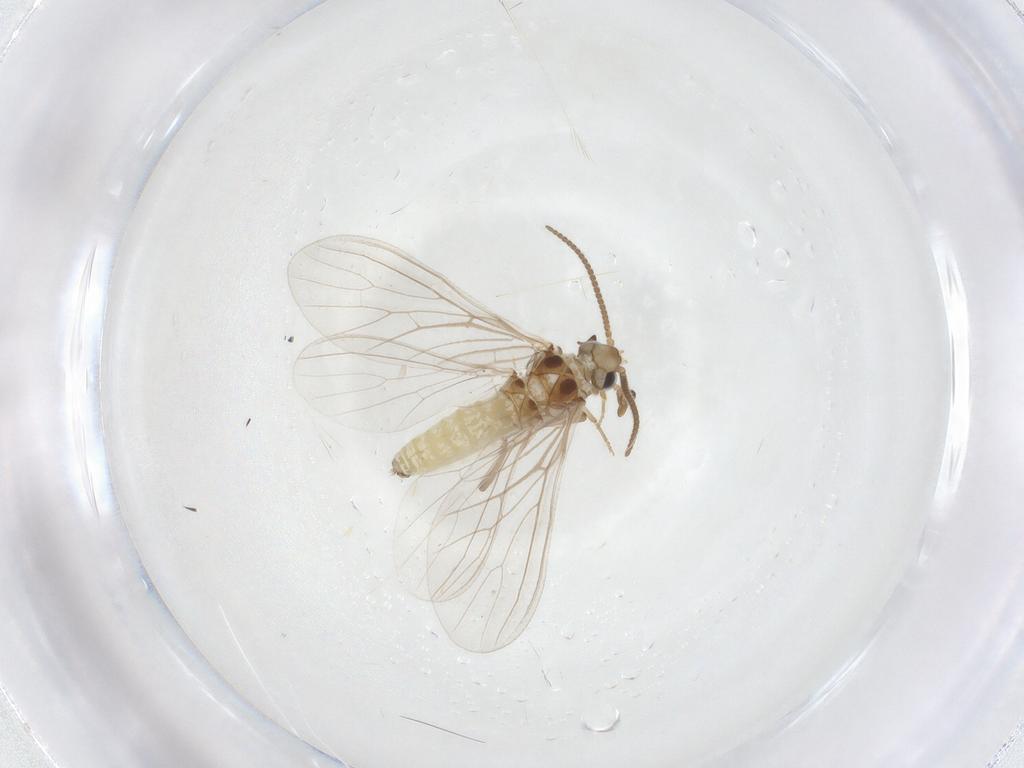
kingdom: Animalia
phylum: Arthropoda
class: Insecta
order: Neuroptera
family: Coniopterygidae
